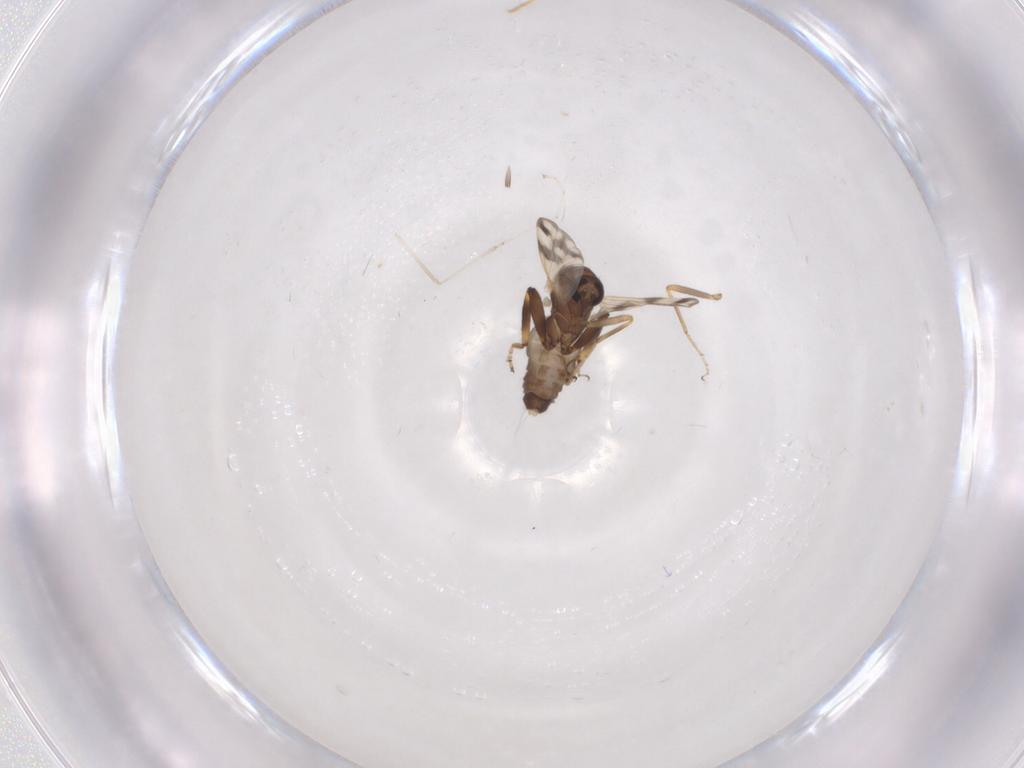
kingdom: Animalia
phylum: Arthropoda
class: Insecta
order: Diptera
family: Ceratopogonidae
